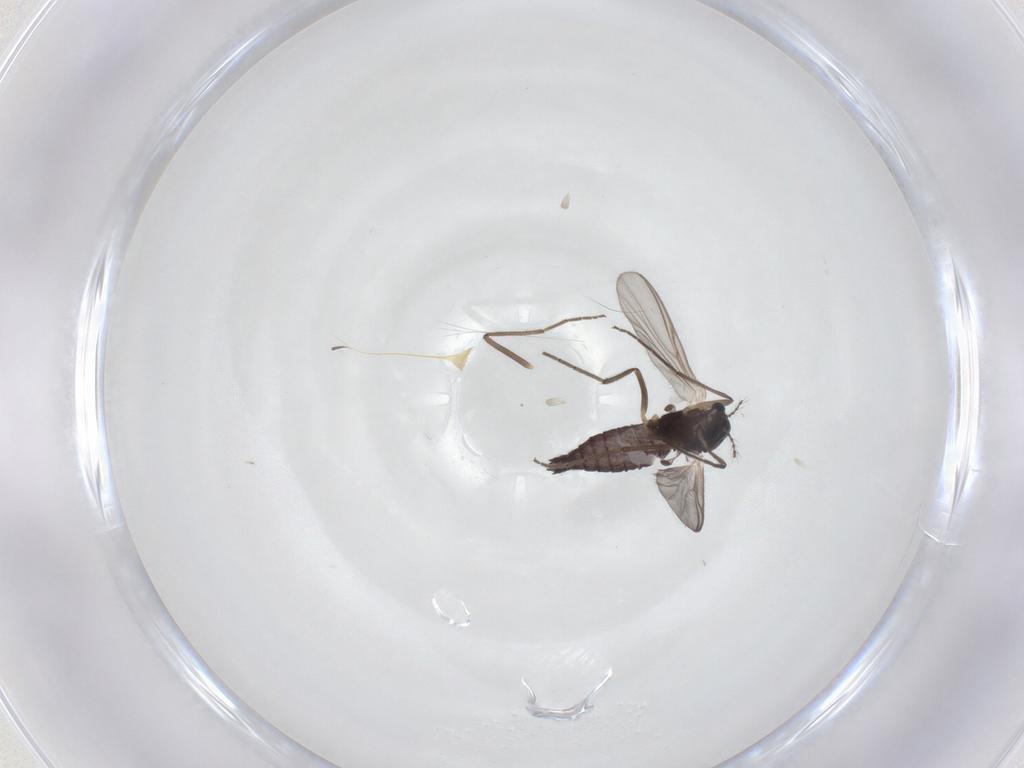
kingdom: Animalia
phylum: Arthropoda
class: Insecta
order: Diptera
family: Chironomidae
